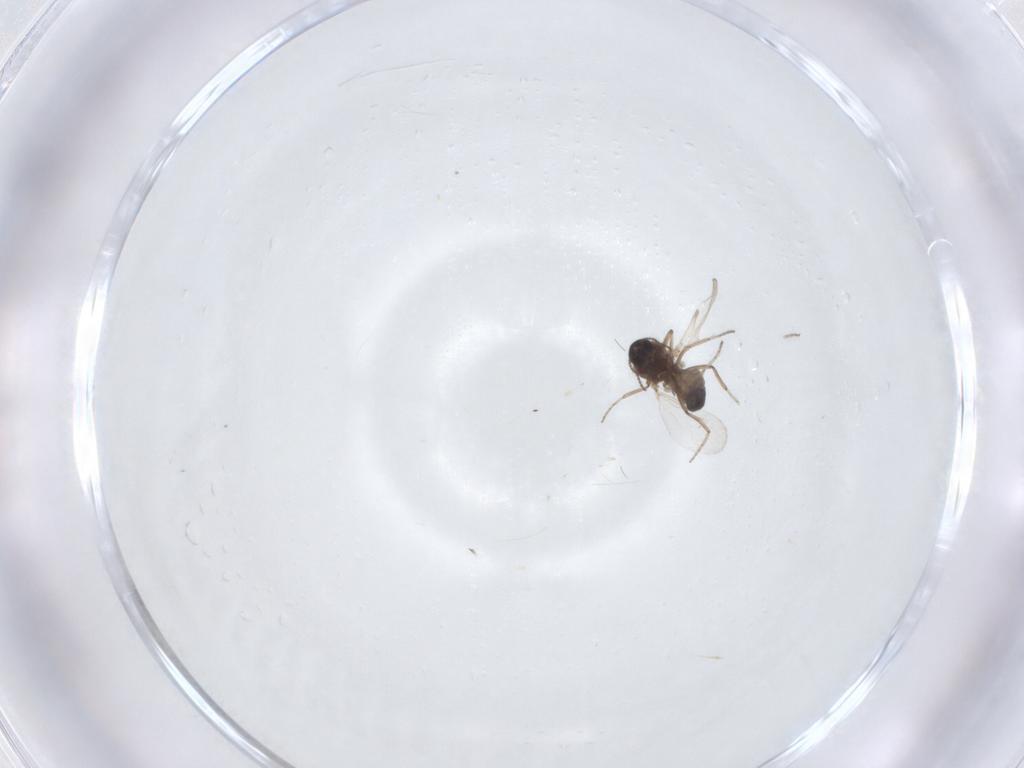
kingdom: Animalia
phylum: Arthropoda
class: Insecta
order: Diptera
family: Ceratopogonidae
